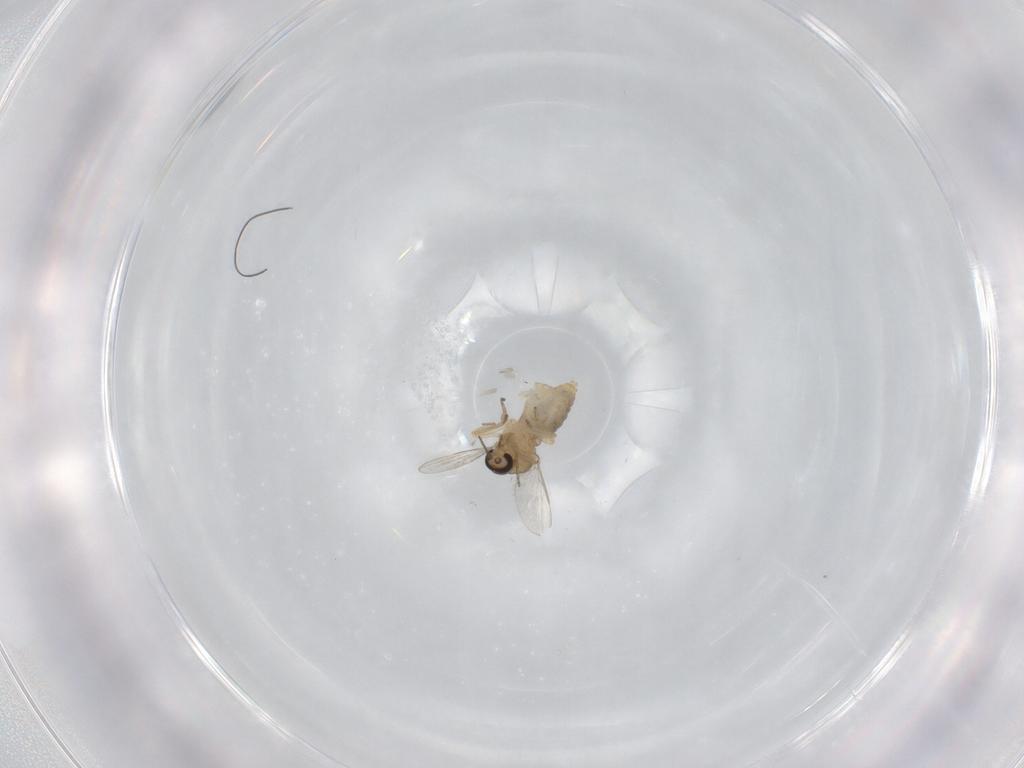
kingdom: Animalia
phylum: Arthropoda
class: Insecta
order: Diptera
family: Ceratopogonidae
